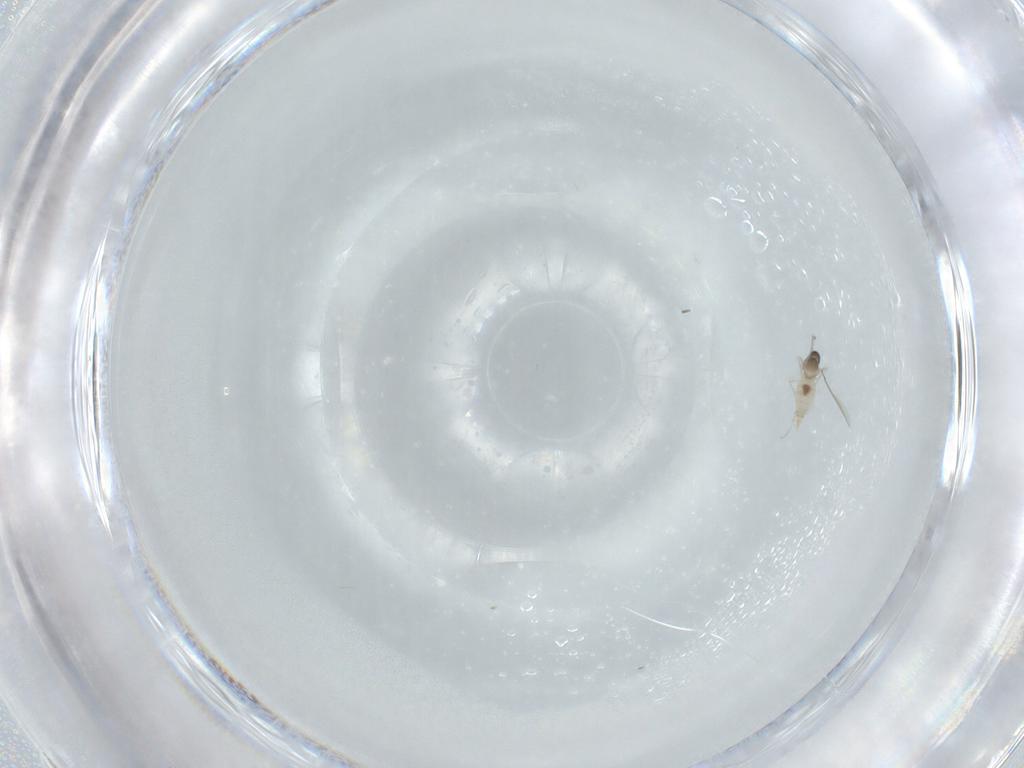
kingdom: Animalia
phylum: Arthropoda
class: Insecta
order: Diptera
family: Cecidomyiidae
